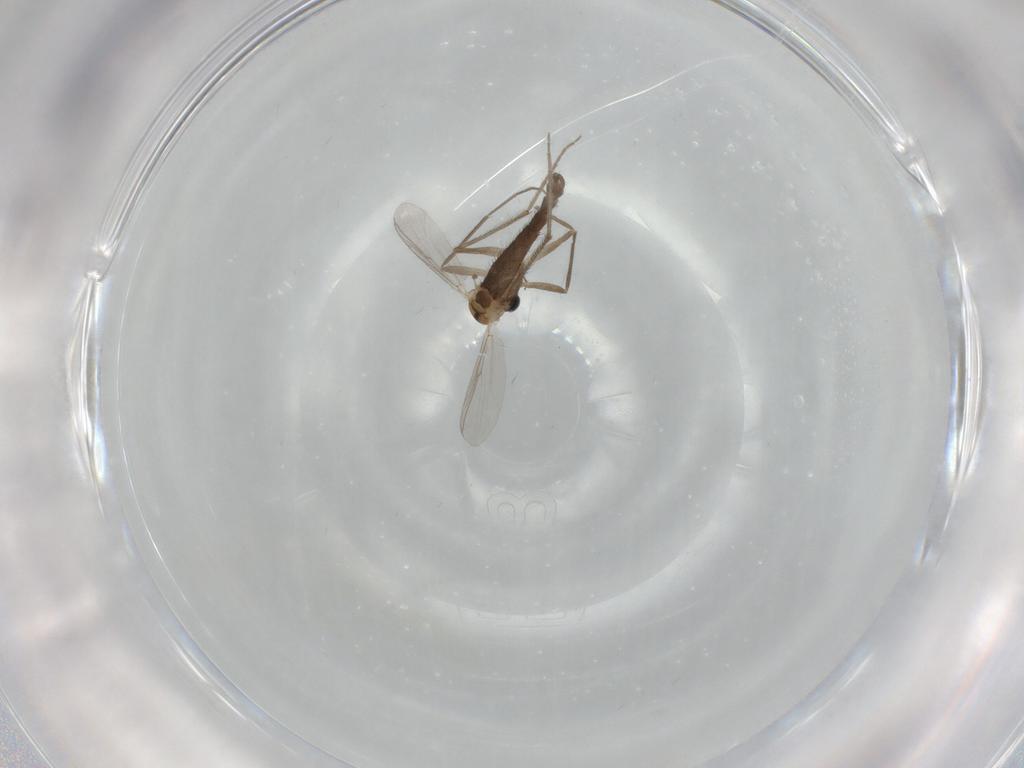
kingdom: Animalia
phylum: Arthropoda
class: Insecta
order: Diptera
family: Chironomidae
